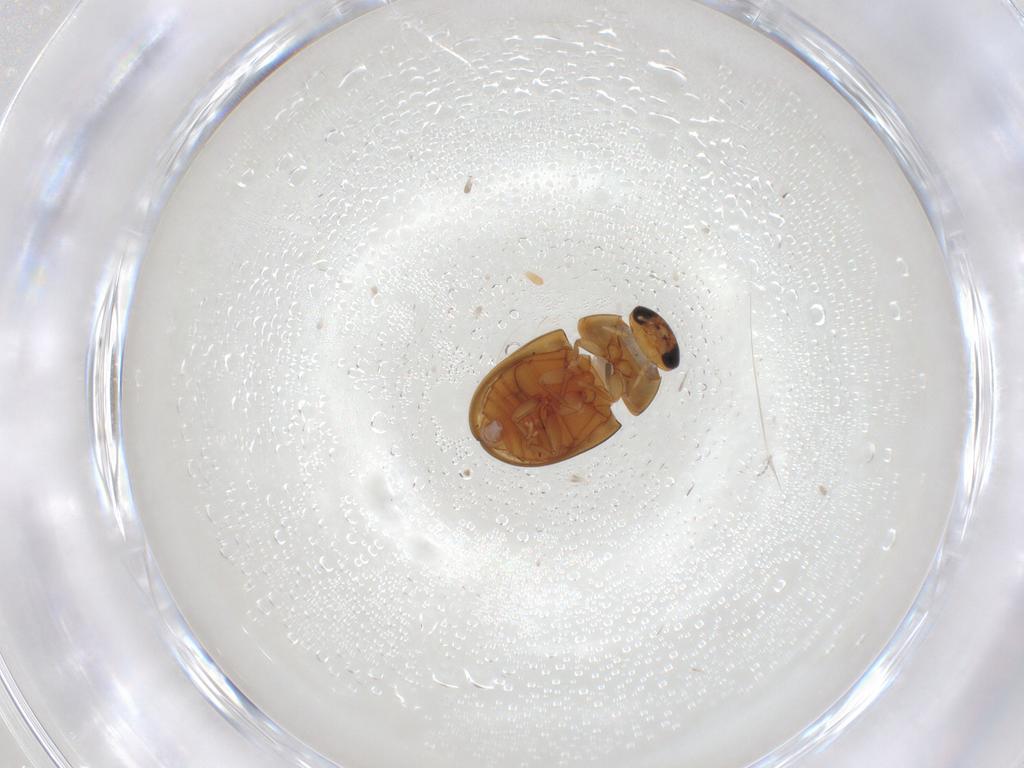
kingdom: Animalia
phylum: Arthropoda
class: Insecta
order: Coleoptera
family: Phalacridae
